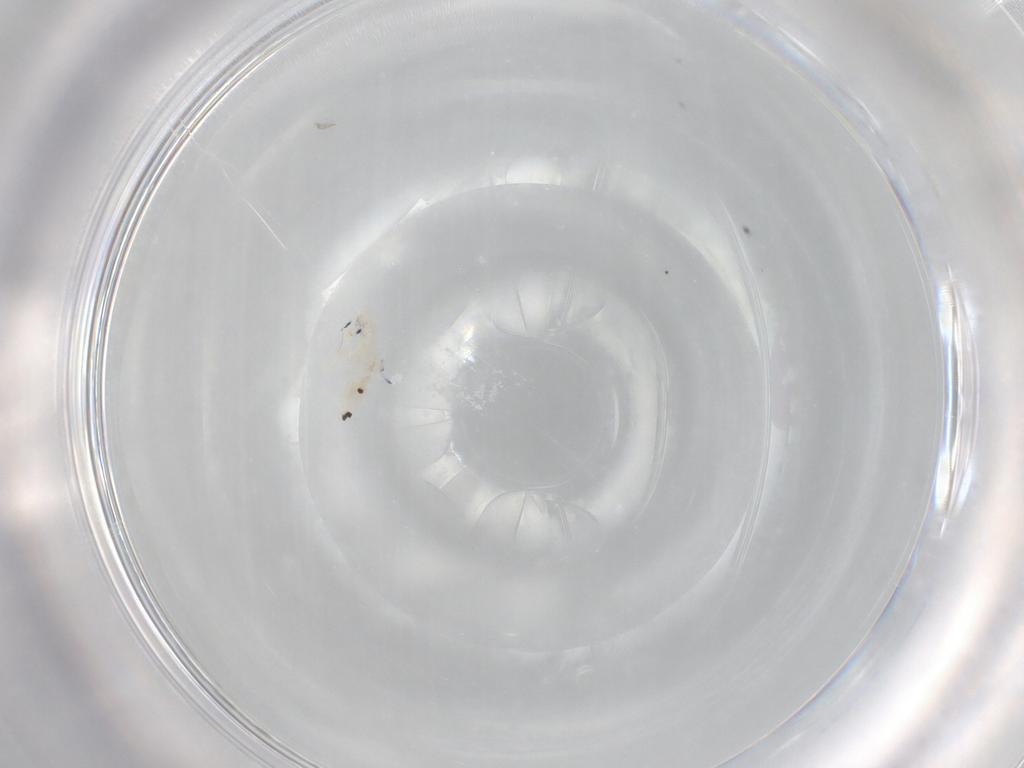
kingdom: Animalia
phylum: Arthropoda
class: Collembola
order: Entomobryomorpha
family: Entomobryidae
